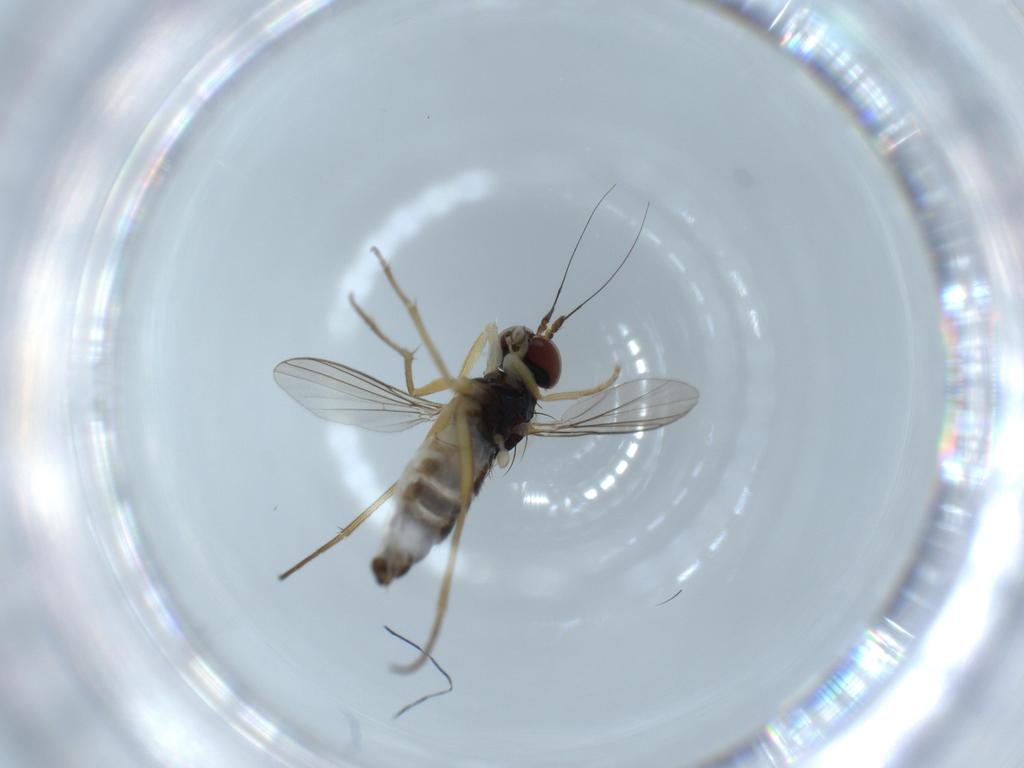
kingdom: Animalia
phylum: Arthropoda
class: Insecta
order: Diptera
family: Dolichopodidae
